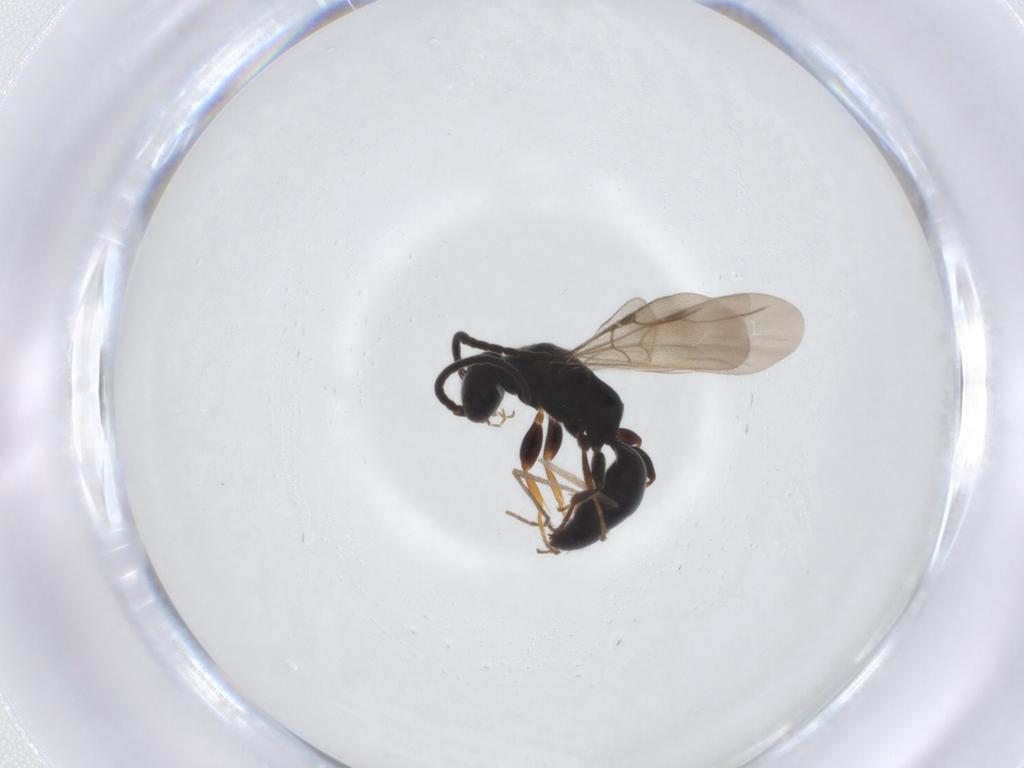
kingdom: Animalia
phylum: Arthropoda
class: Insecta
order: Hymenoptera
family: Bethylidae
